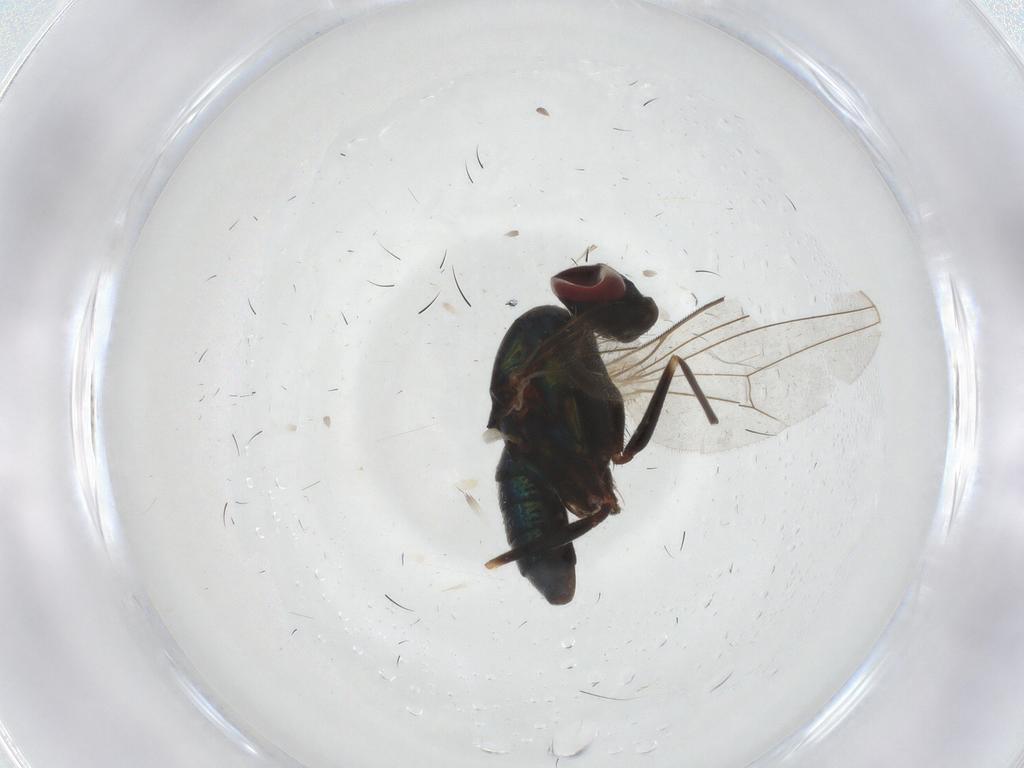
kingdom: Animalia
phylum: Arthropoda
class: Insecta
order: Diptera
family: Dolichopodidae
